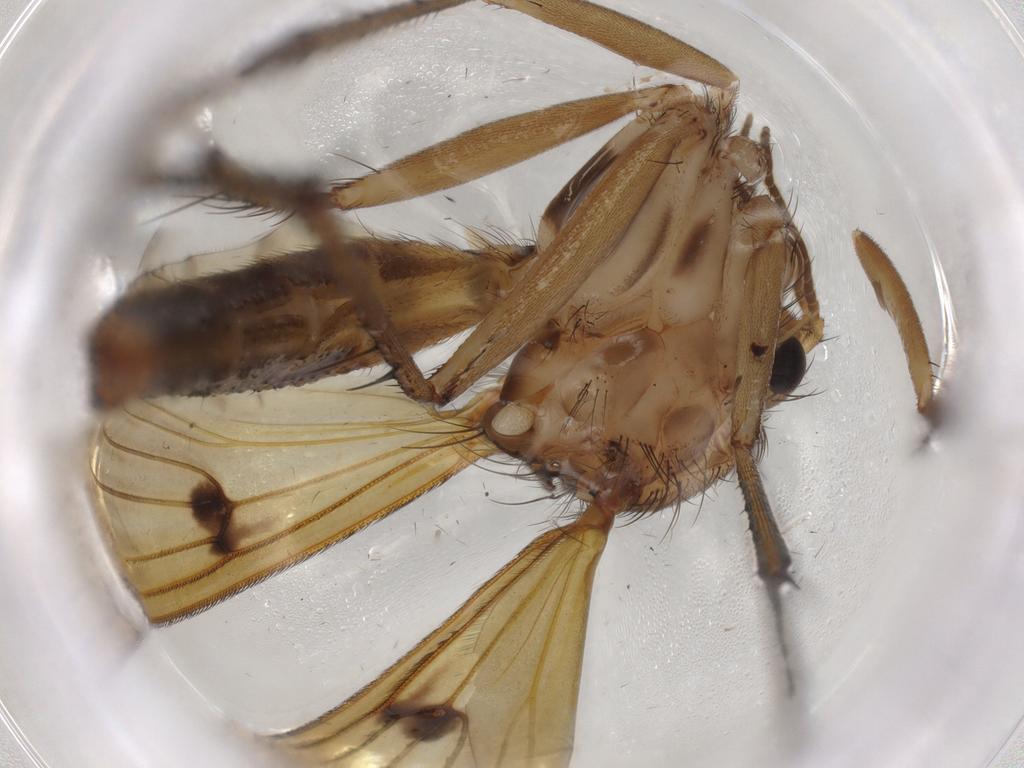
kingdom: Animalia
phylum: Arthropoda
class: Insecta
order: Diptera
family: Mycetophilidae
